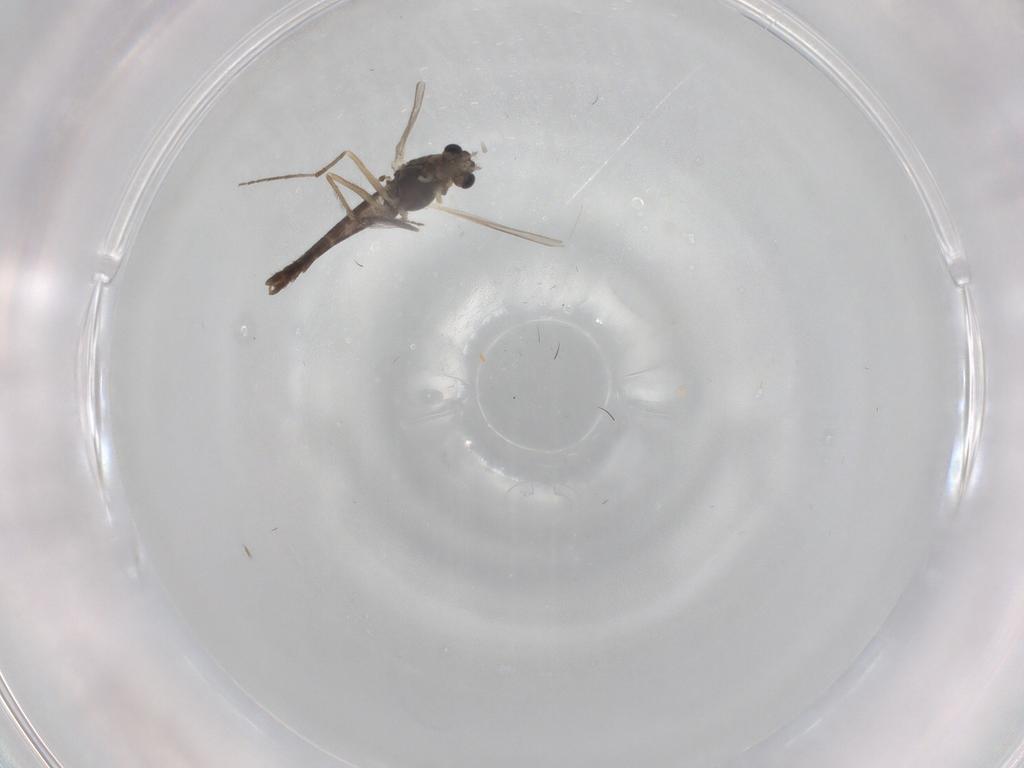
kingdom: Animalia
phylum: Arthropoda
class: Insecta
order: Diptera
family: Chironomidae
